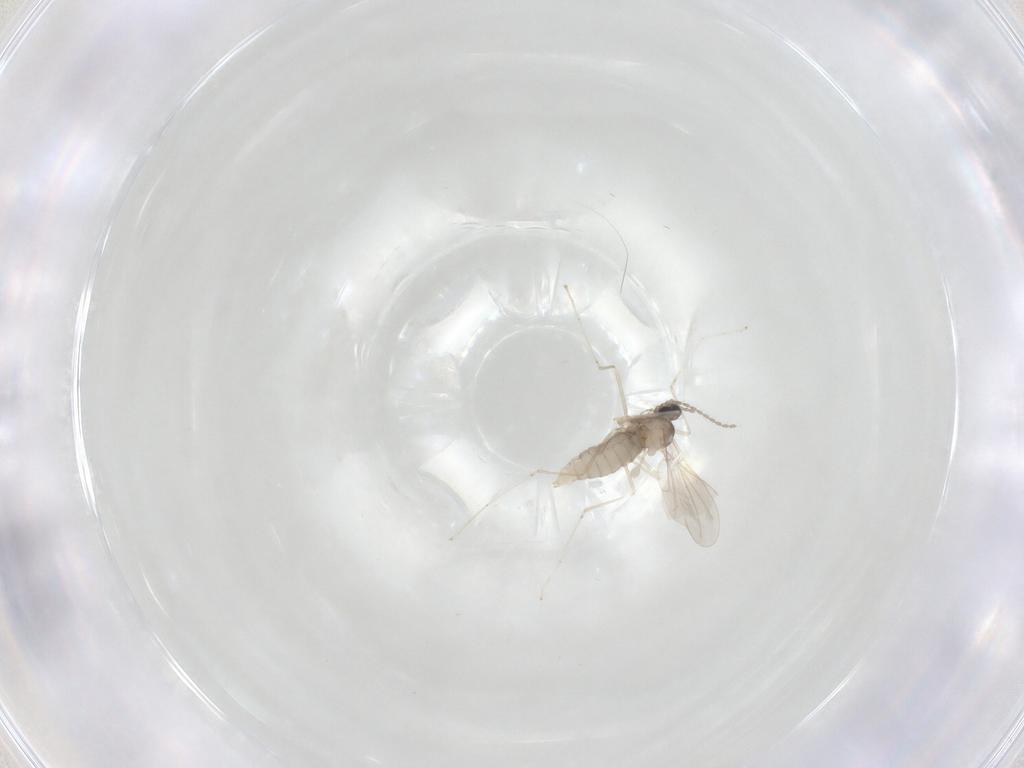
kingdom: Animalia
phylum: Arthropoda
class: Insecta
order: Diptera
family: Cecidomyiidae
